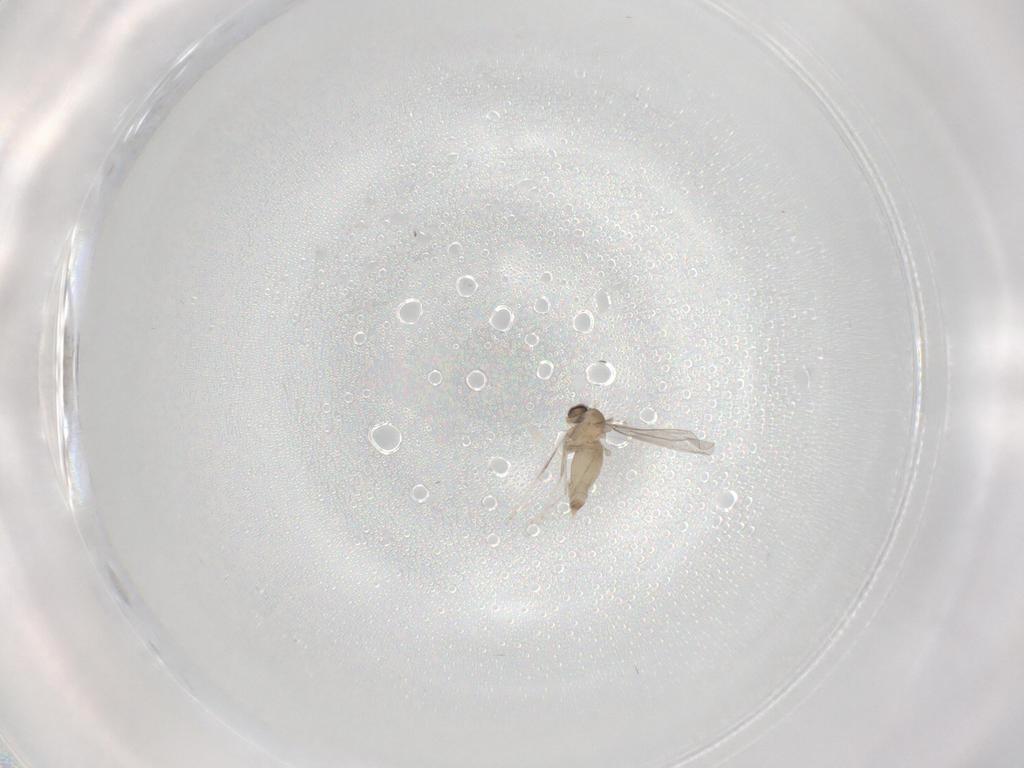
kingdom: Animalia
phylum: Arthropoda
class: Insecta
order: Diptera
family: Cecidomyiidae
